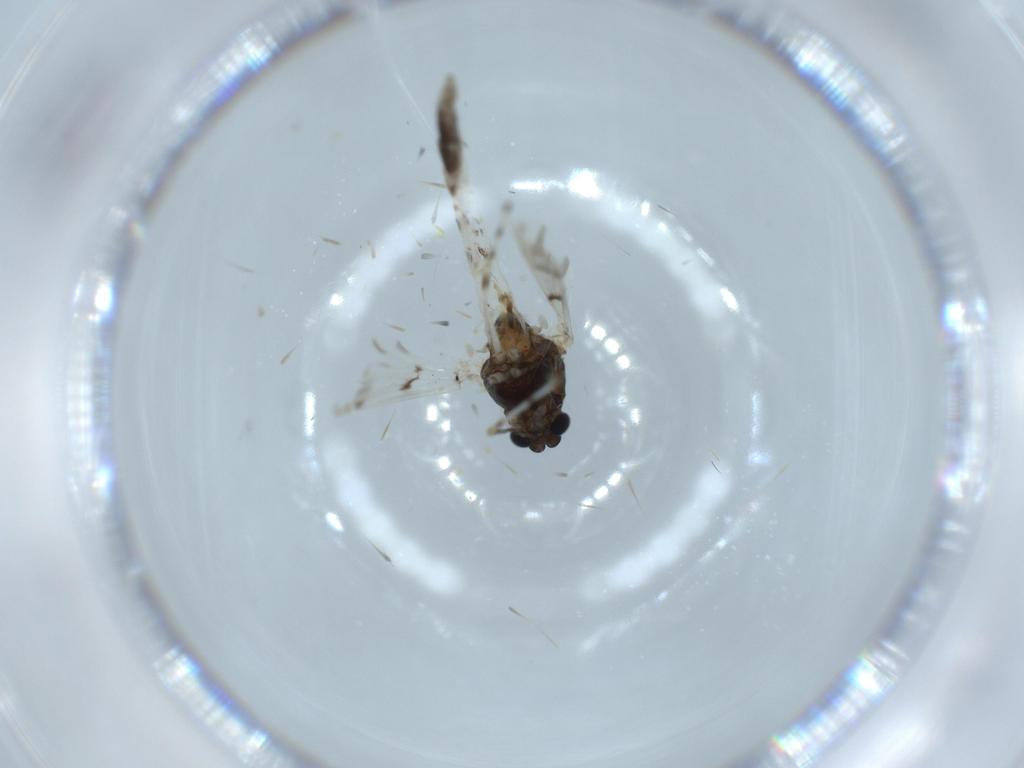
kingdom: Animalia
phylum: Arthropoda
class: Insecta
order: Diptera
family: Chironomidae
